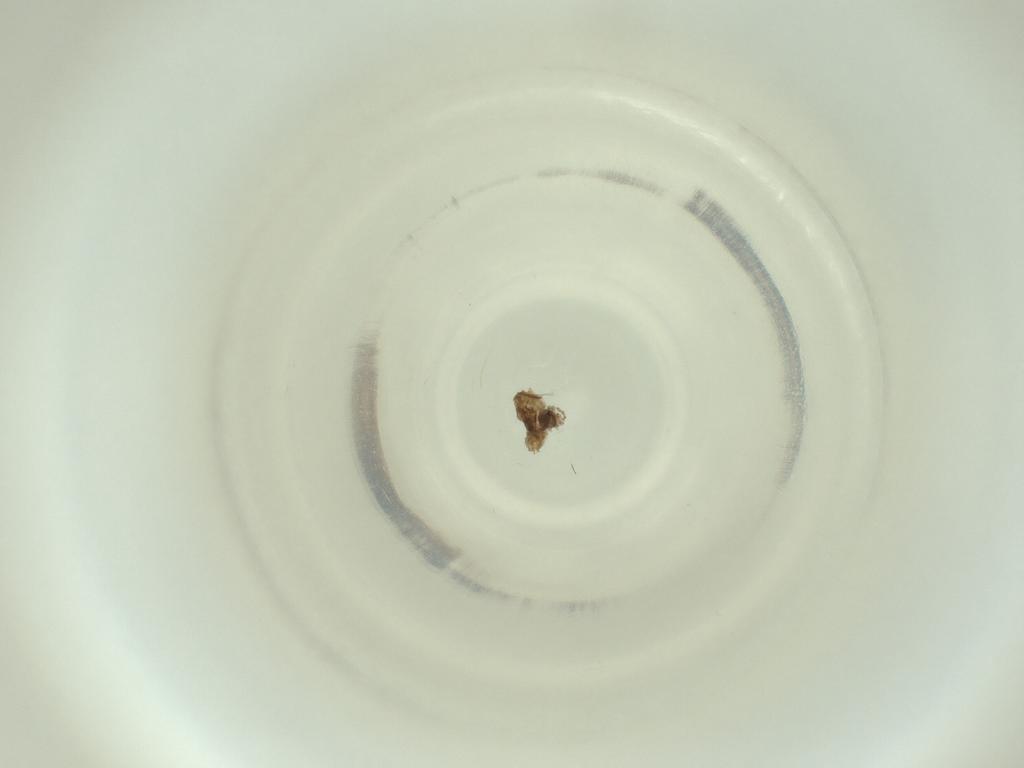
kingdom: Animalia
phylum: Arthropoda
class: Insecta
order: Diptera
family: Cecidomyiidae
